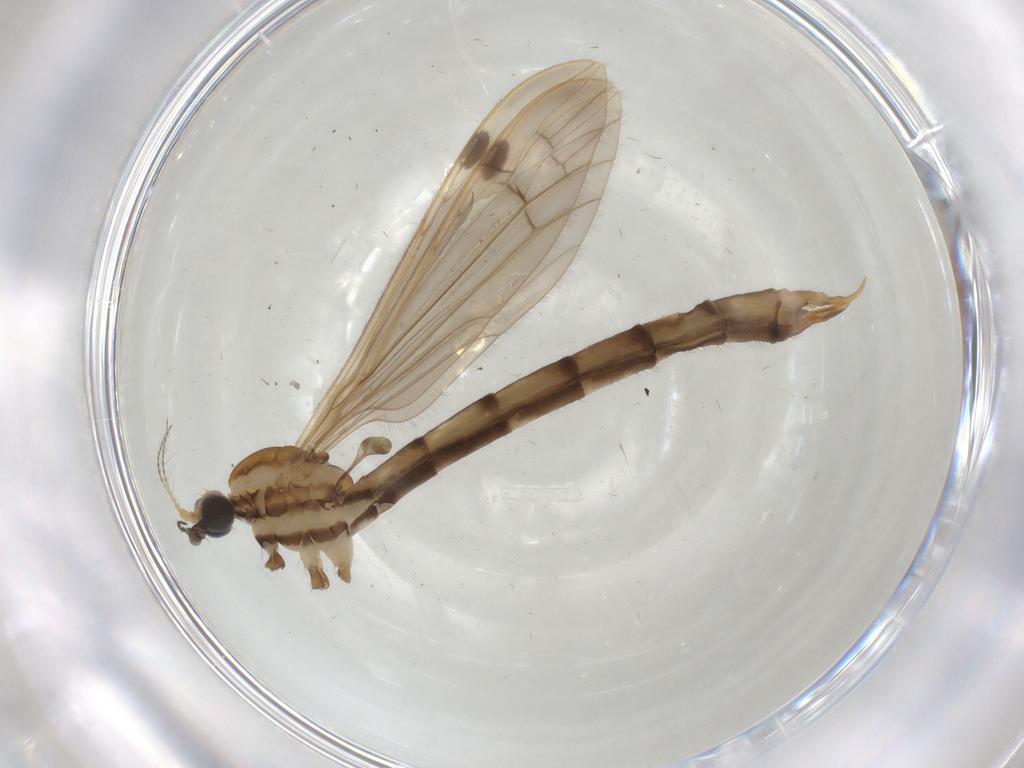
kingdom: Animalia
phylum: Arthropoda
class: Insecta
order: Diptera
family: Limoniidae
